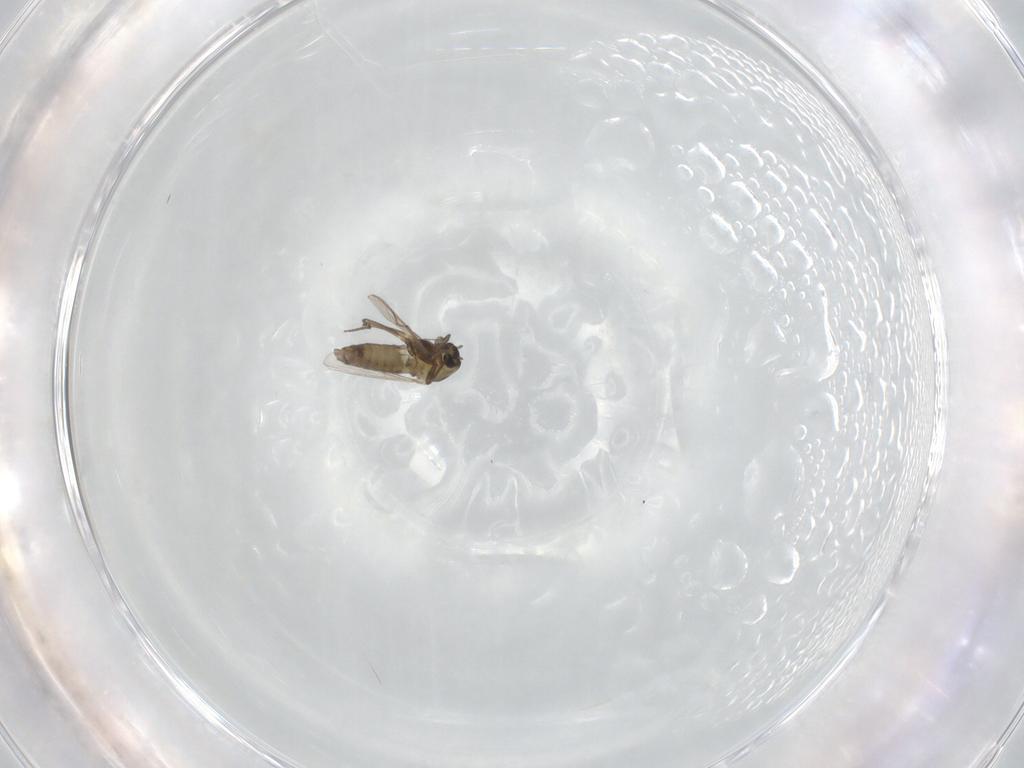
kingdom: Animalia
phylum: Arthropoda
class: Insecta
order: Diptera
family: Chironomidae
